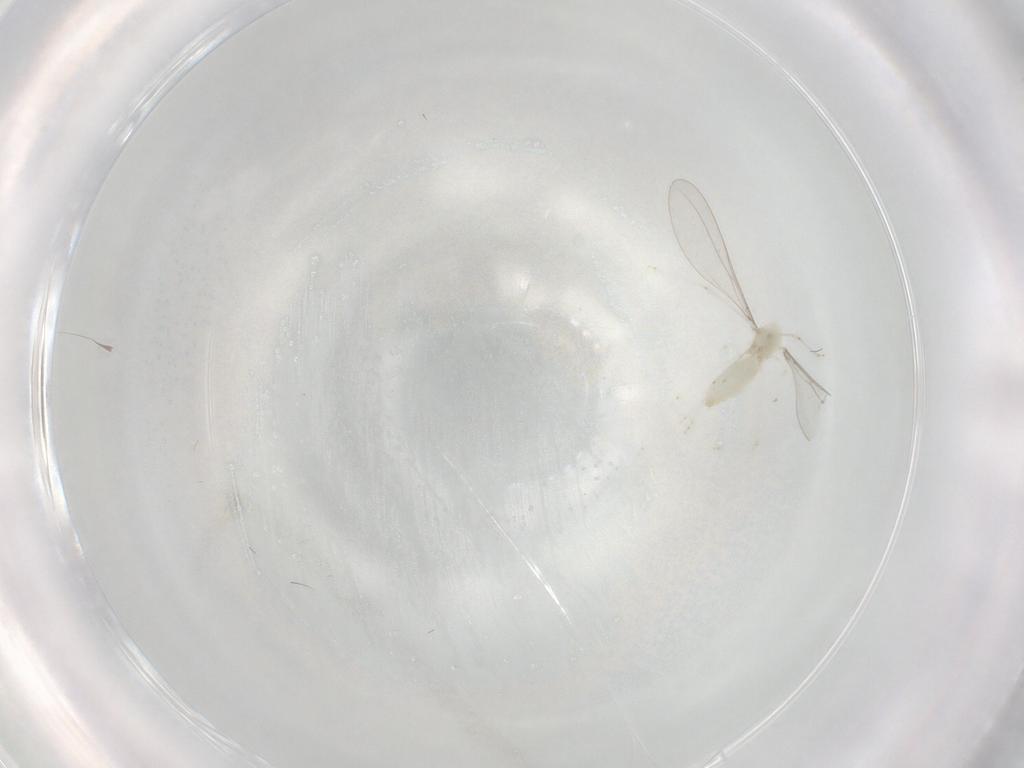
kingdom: Animalia
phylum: Arthropoda
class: Insecta
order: Diptera
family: Cecidomyiidae
